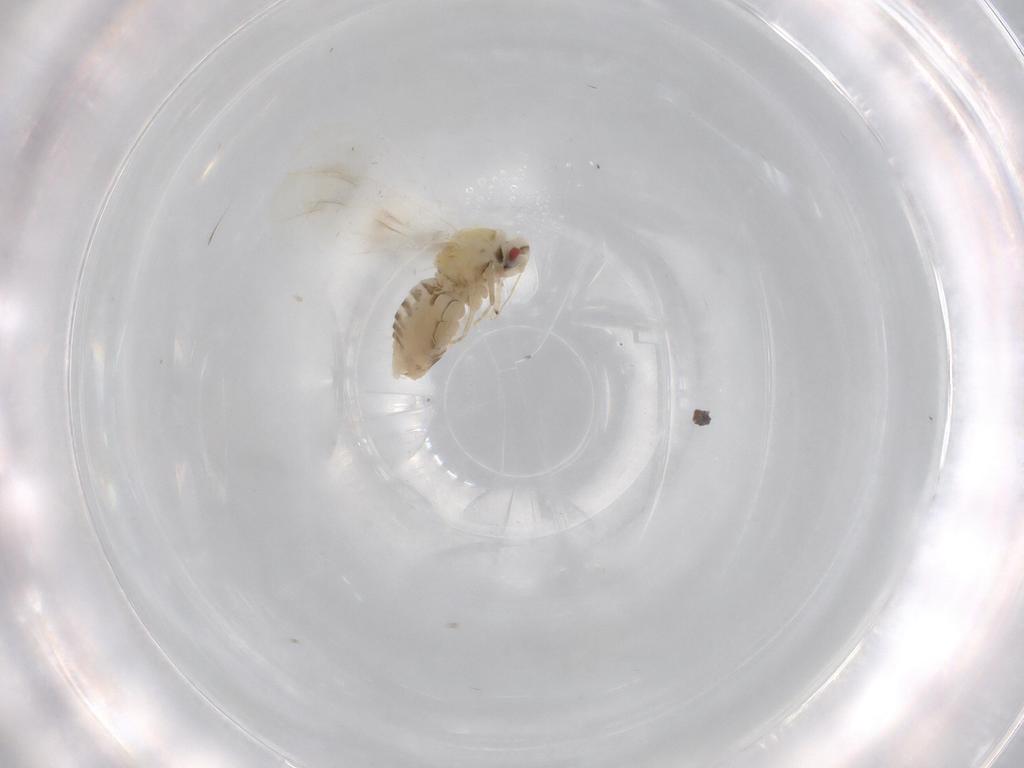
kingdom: Animalia
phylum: Arthropoda
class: Insecta
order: Hemiptera
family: Aleyrodidae
